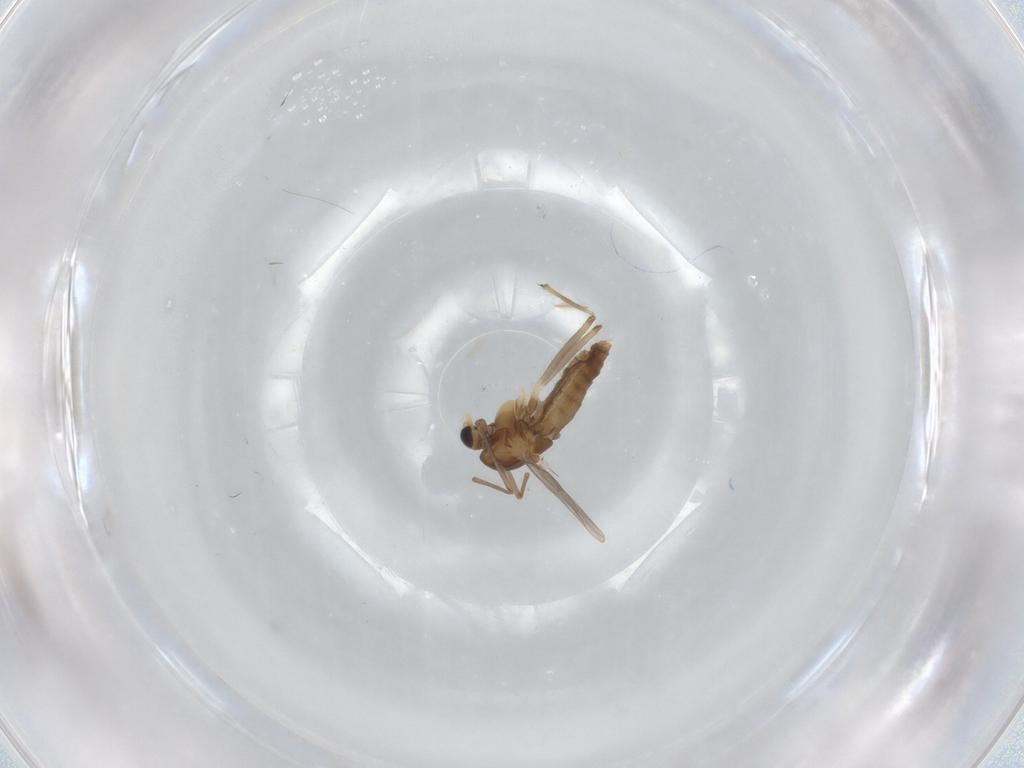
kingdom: Animalia
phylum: Arthropoda
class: Insecta
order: Diptera
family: Chironomidae
